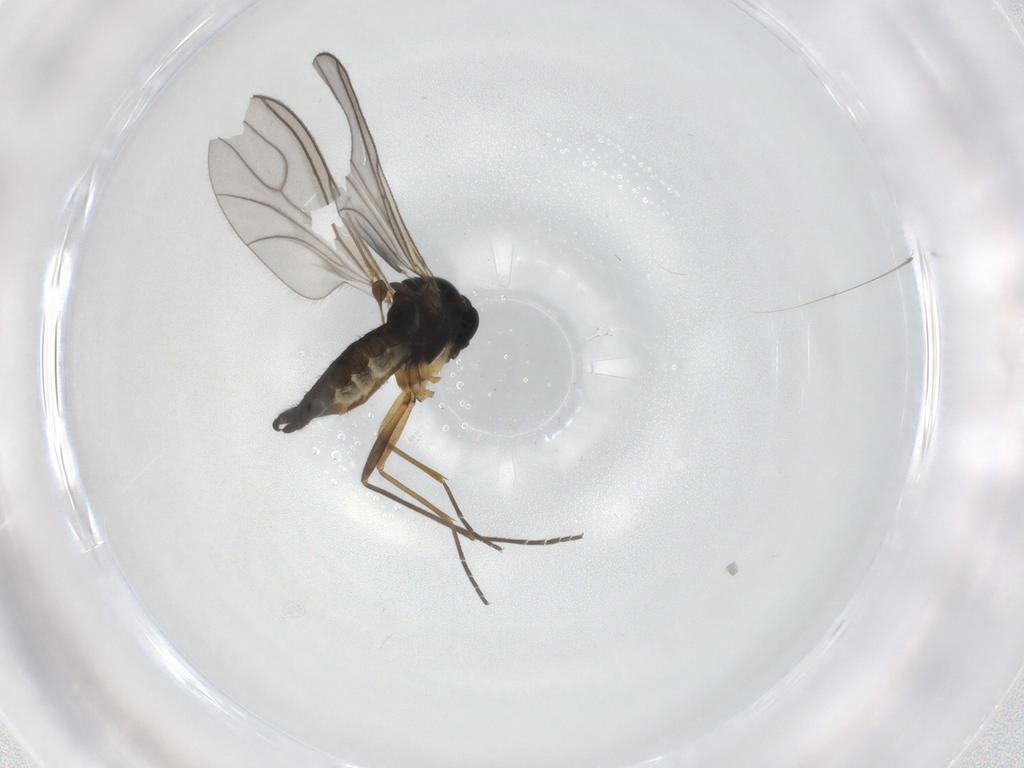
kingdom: Animalia
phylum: Arthropoda
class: Insecta
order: Diptera
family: Sciaridae
